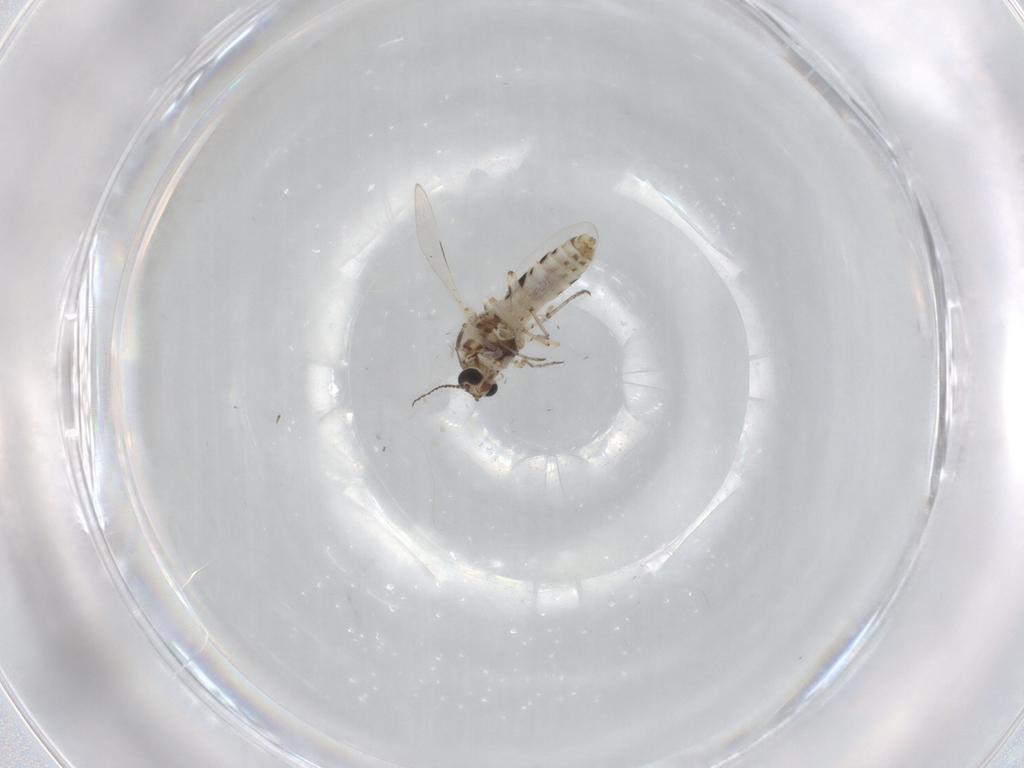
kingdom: Animalia
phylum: Arthropoda
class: Insecta
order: Diptera
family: Ceratopogonidae
